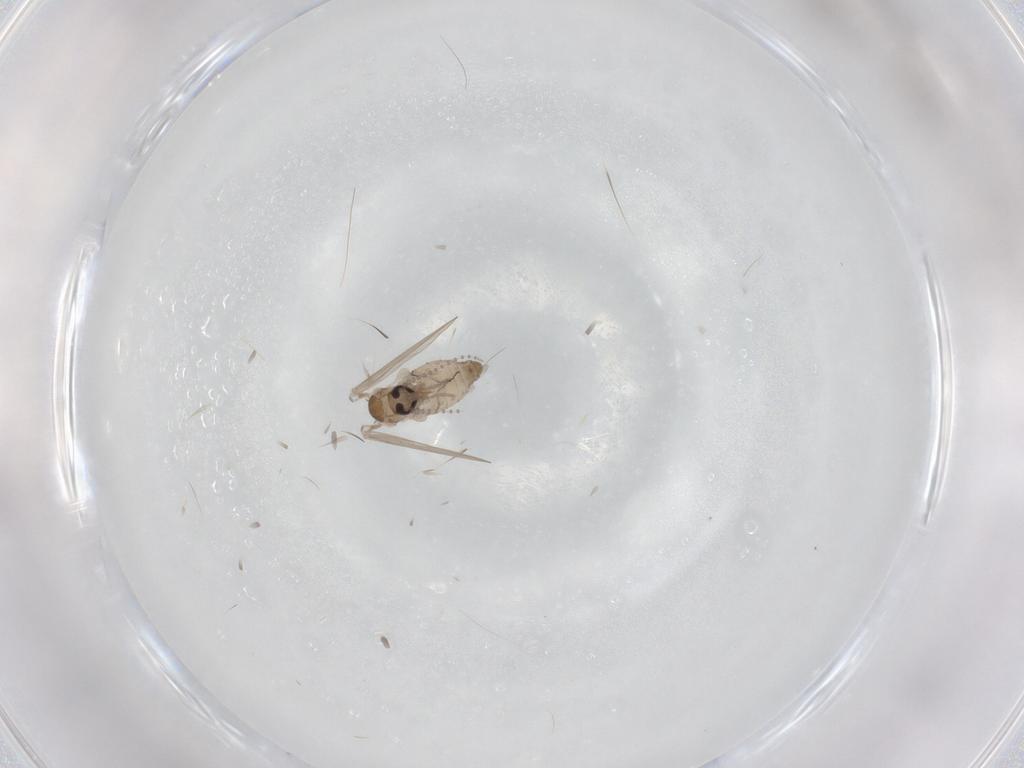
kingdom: Animalia
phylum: Arthropoda
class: Insecta
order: Diptera
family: Psychodidae
